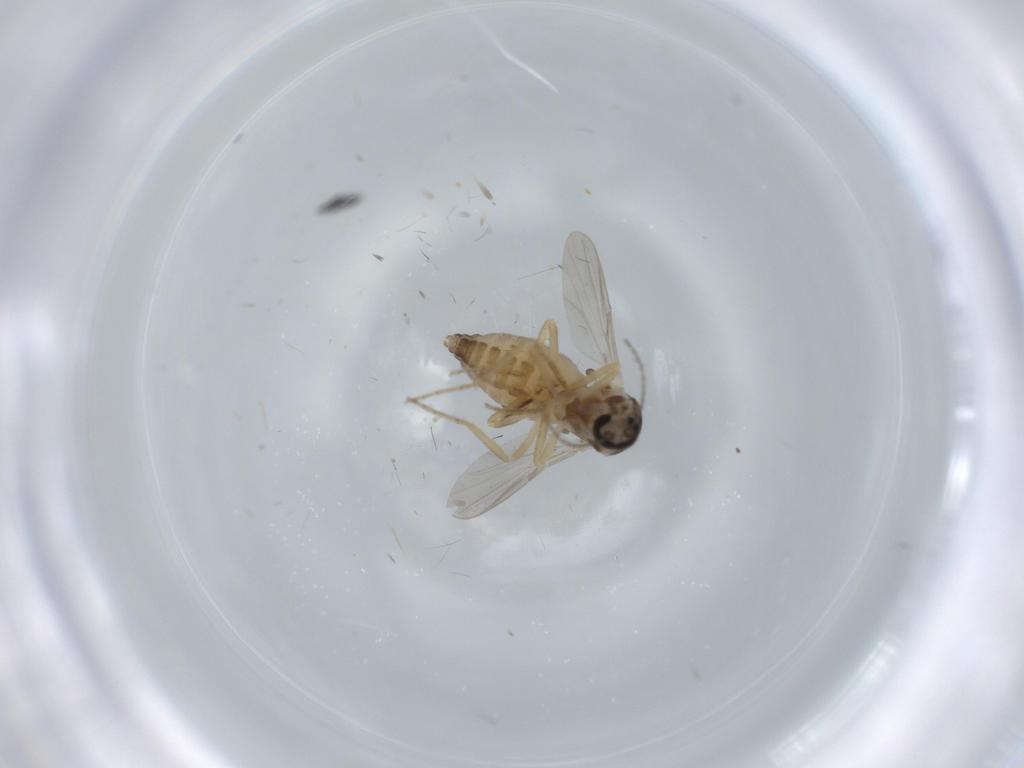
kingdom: Animalia
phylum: Arthropoda
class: Insecta
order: Diptera
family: Ceratopogonidae
